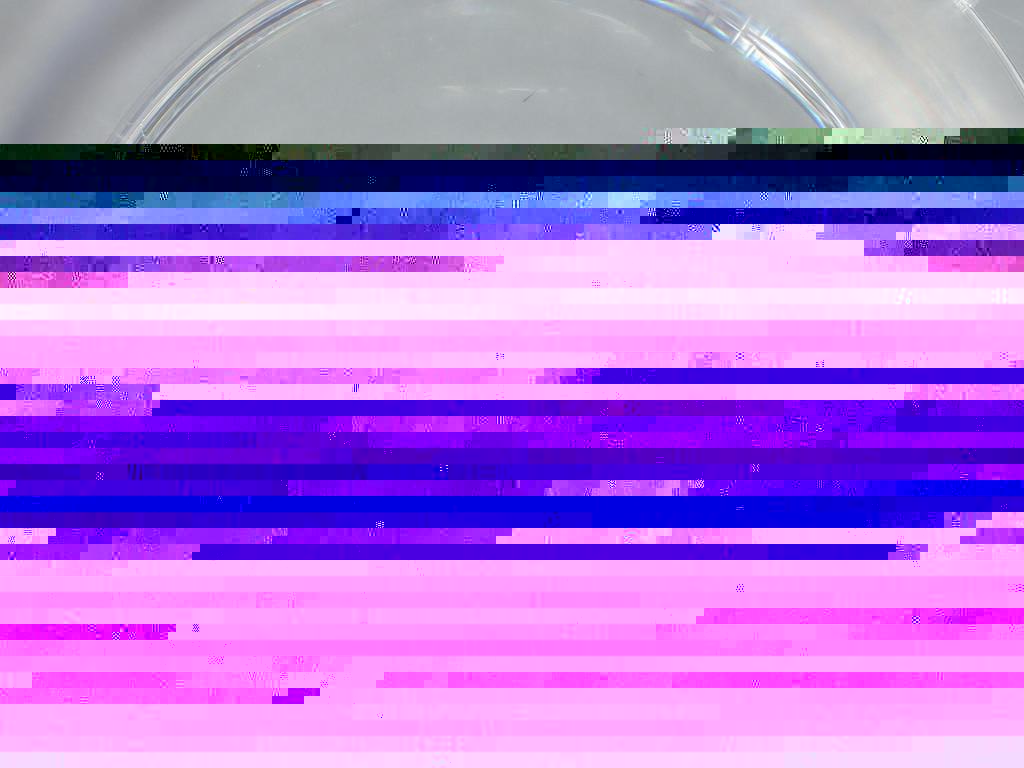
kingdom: Animalia
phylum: Arthropoda
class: Insecta
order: Diptera
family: Sciaridae
